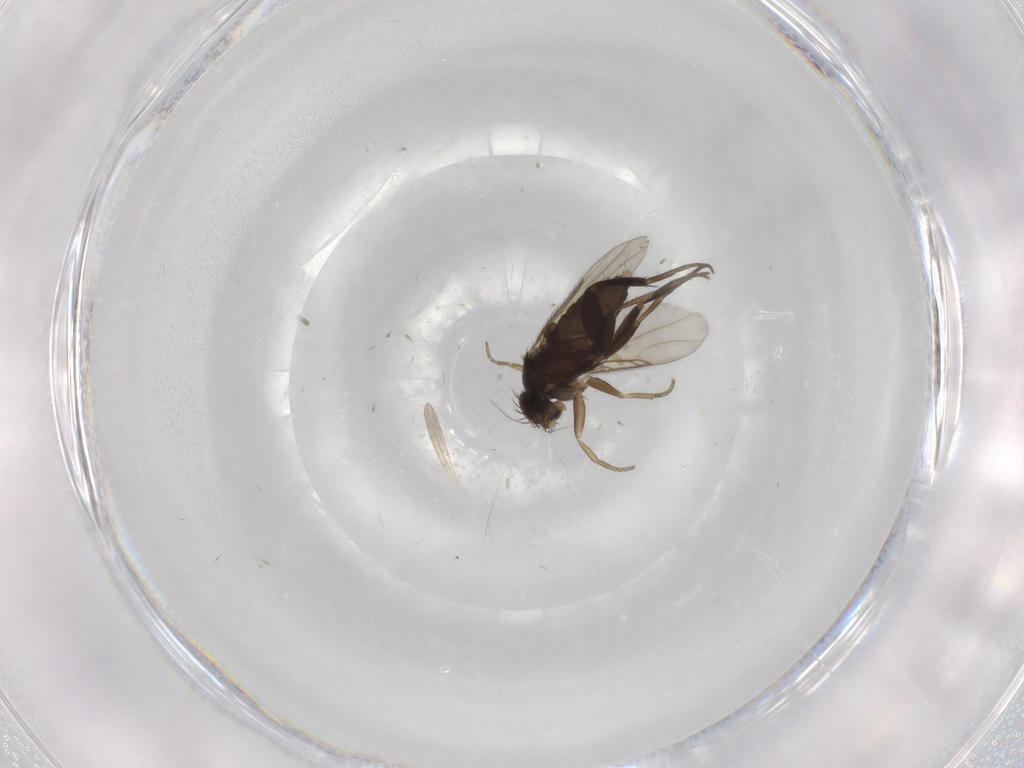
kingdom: Animalia
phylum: Arthropoda
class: Insecta
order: Diptera
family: Phoridae
